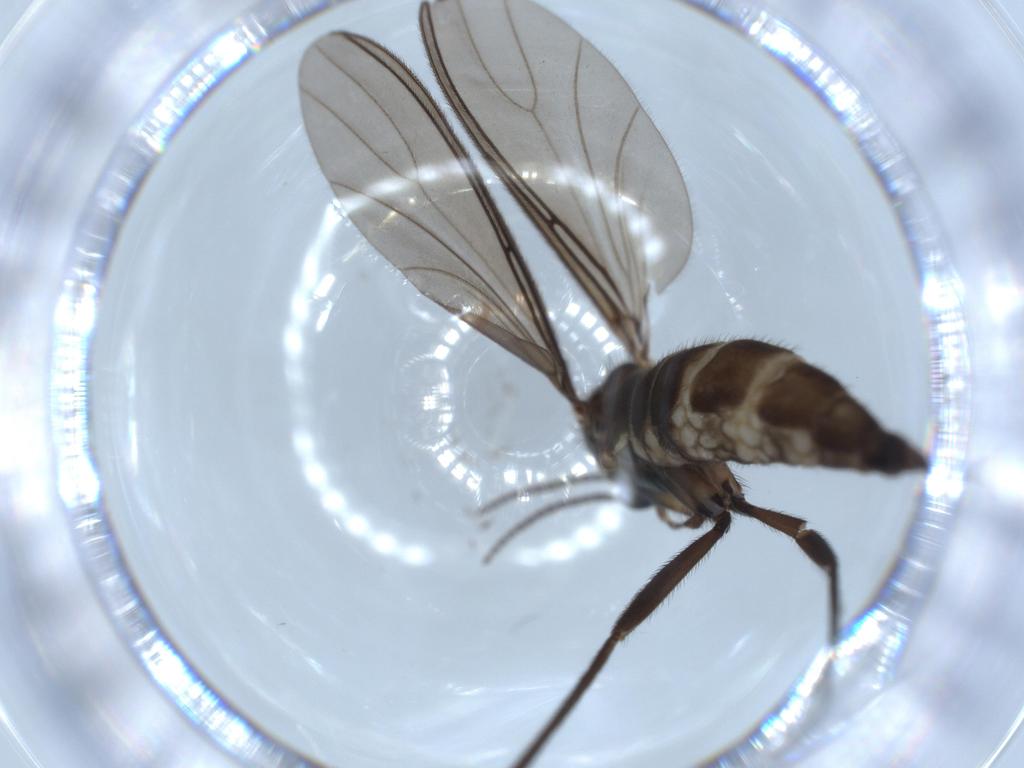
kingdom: Animalia
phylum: Arthropoda
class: Insecta
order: Diptera
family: Sciaridae
